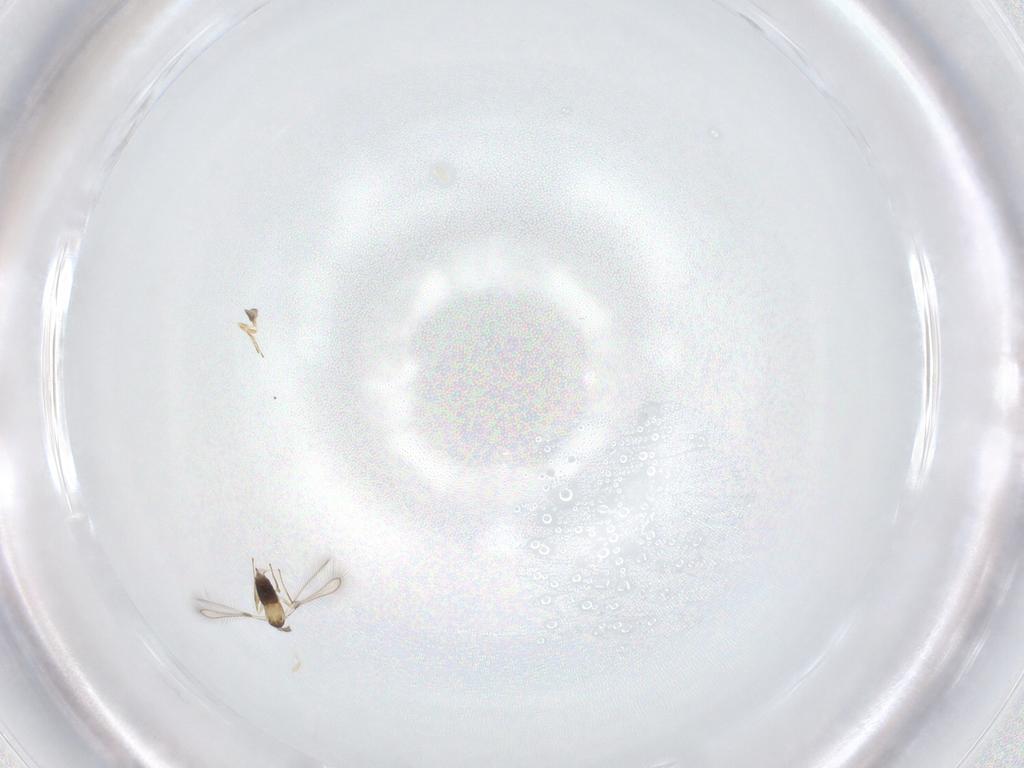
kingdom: Animalia
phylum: Arthropoda
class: Insecta
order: Hymenoptera
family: Mymaridae
